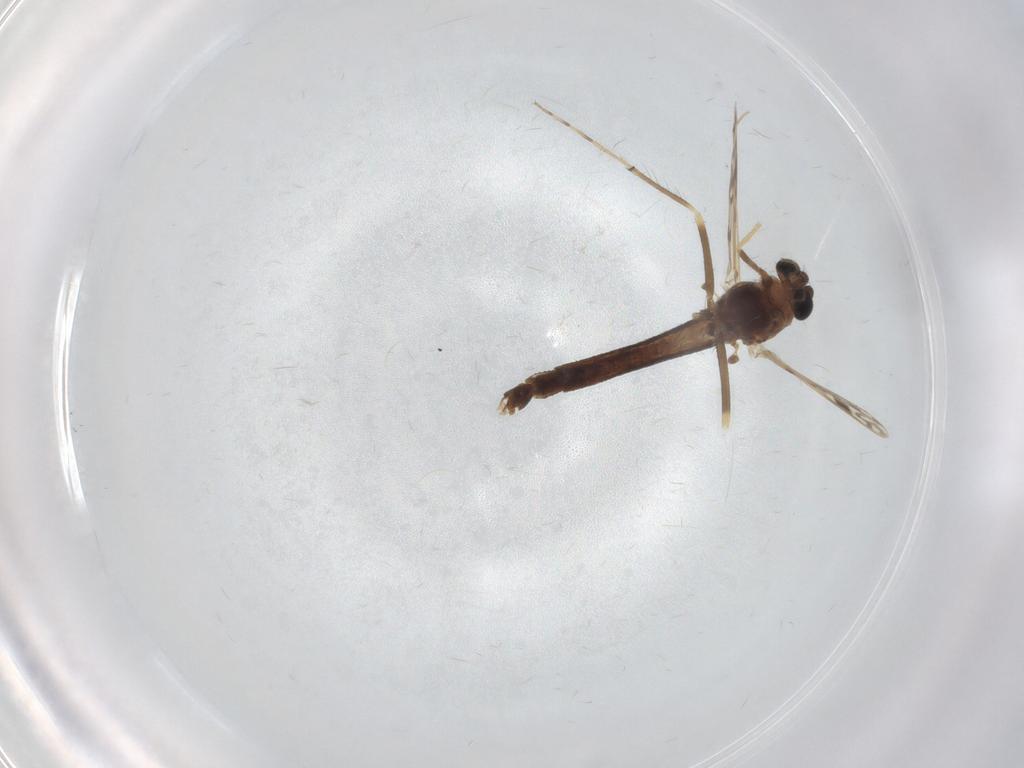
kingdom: Animalia
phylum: Arthropoda
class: Insecta
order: Diptera
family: Chironomidae
